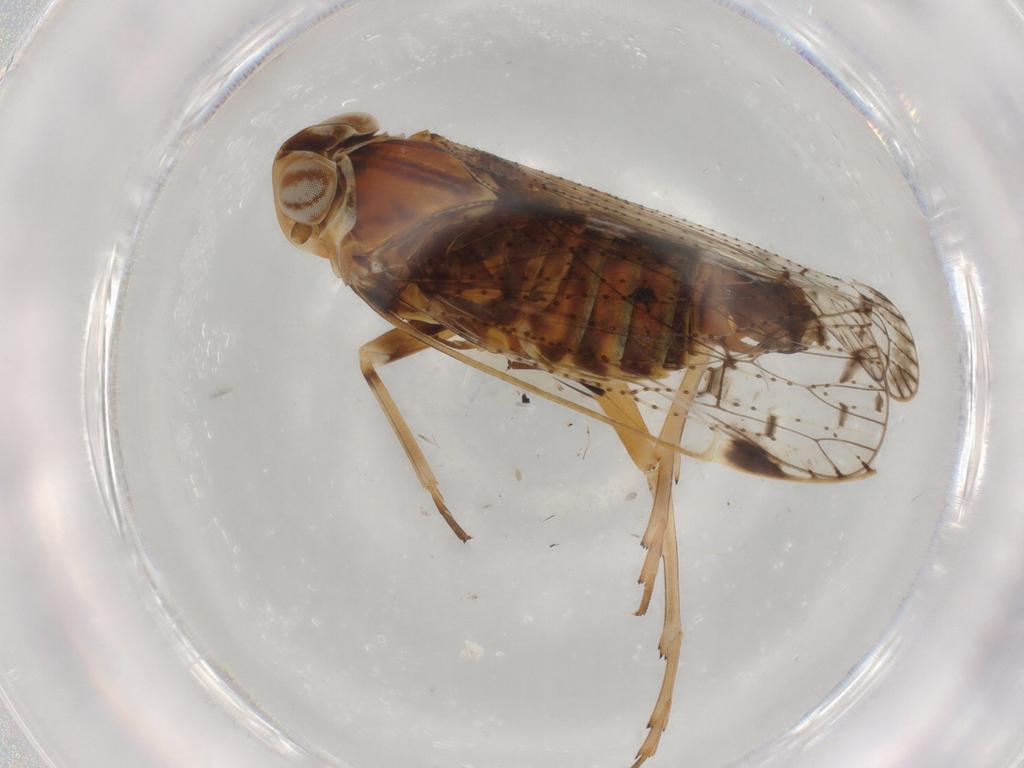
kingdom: Animalia
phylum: Arthropoda
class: Insecta
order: Hemiptera
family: Cixiidae
